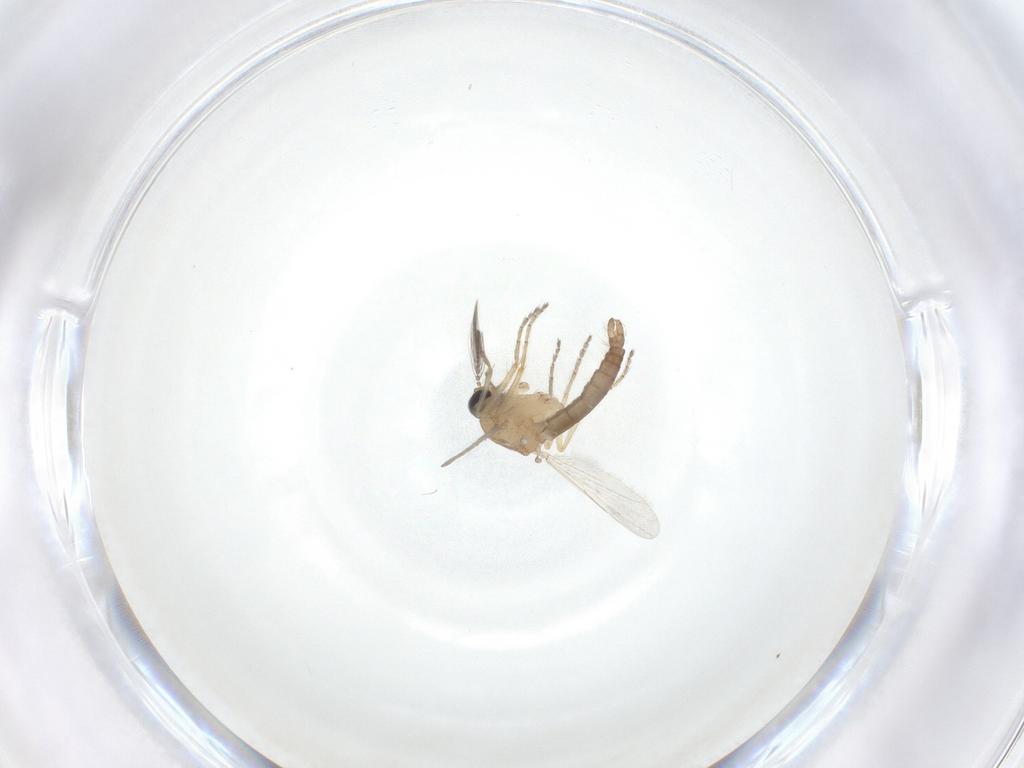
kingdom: Animalia
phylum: Arthropoda
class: Insecta
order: Diptera
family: Ceratopogonidae
